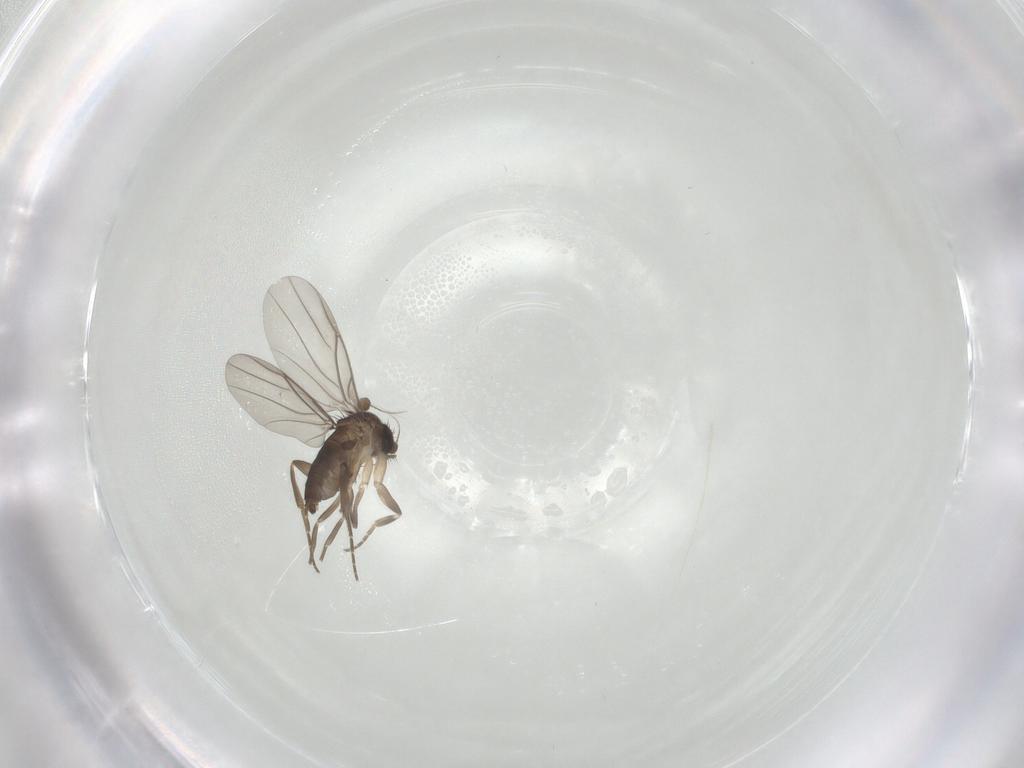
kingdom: Animalia
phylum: Arthropoda
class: Insecta
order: Diptera
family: Phoridae
